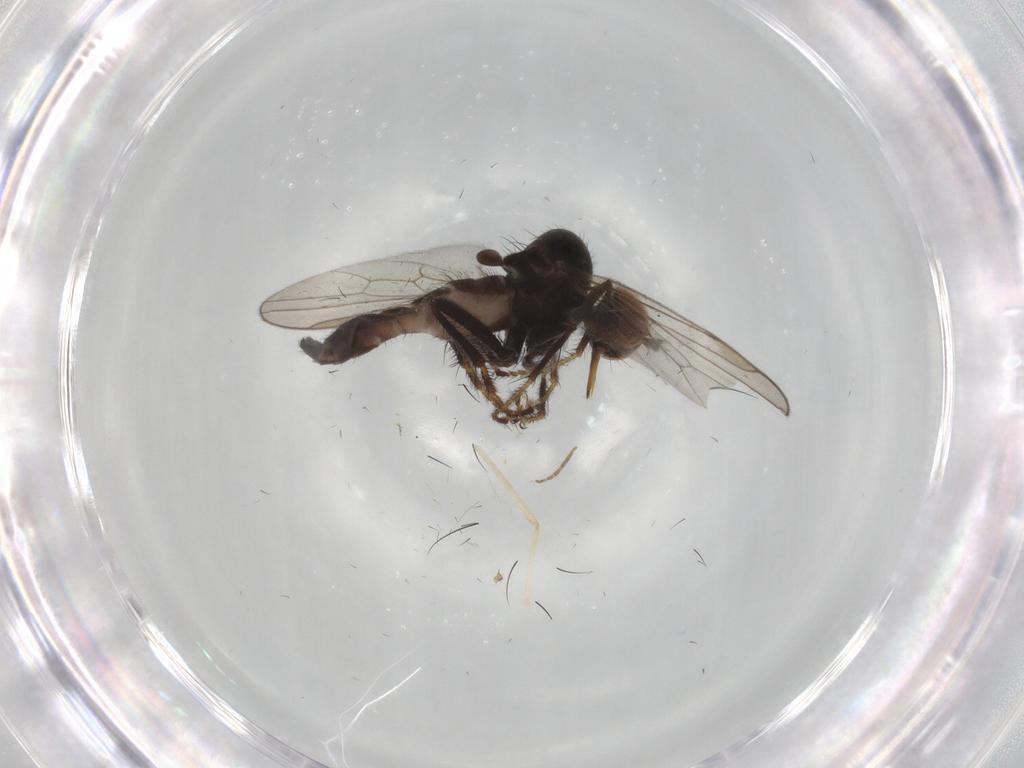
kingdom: Animalia
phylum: Arthropoda
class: Insecta
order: Diptera
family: Hybotidae
